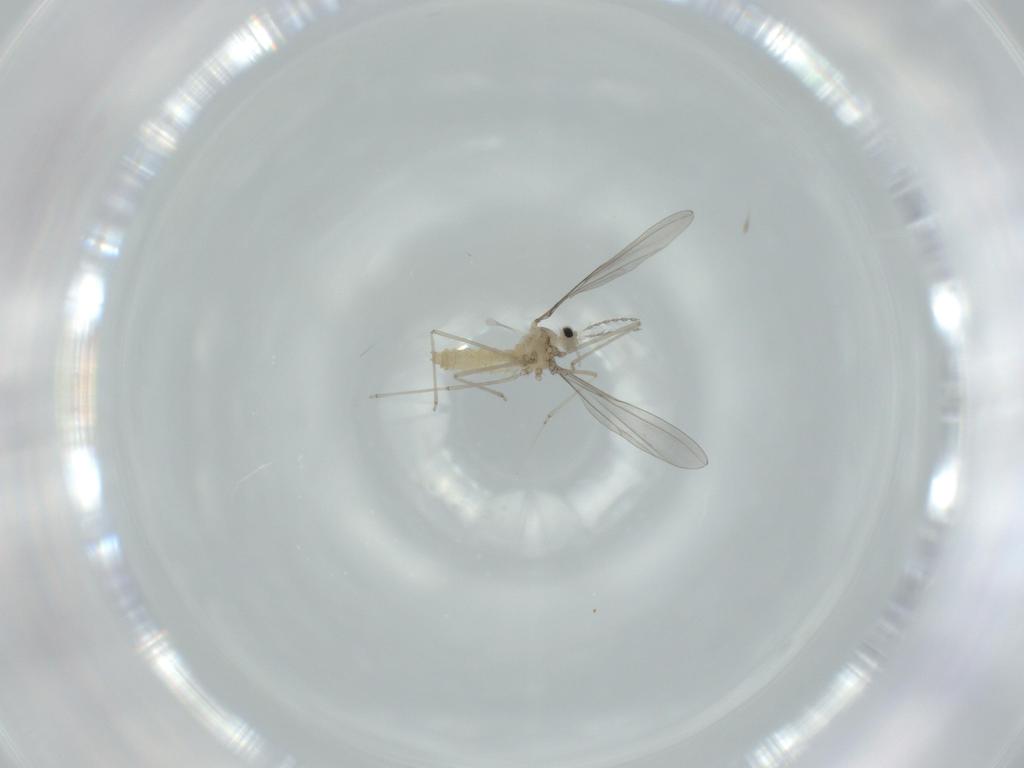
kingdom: Animalia
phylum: Arthropoda
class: Insecta
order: Diptera
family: Cecidomyiidae
